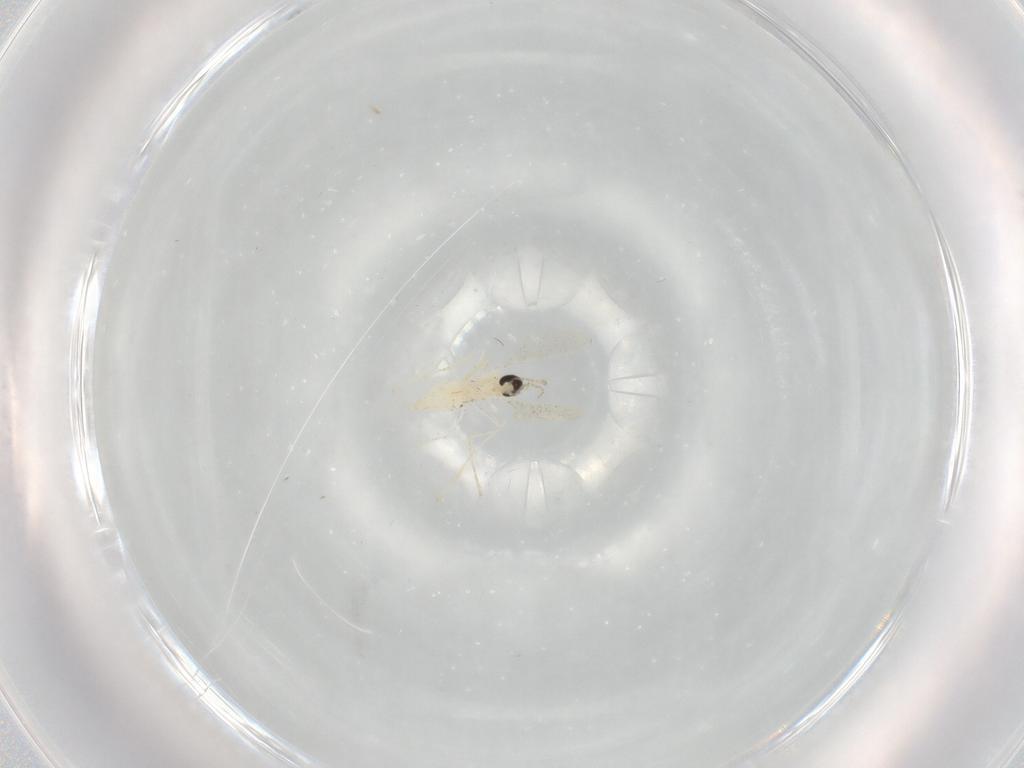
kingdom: Animalia
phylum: Arthropoda
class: Insecta
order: Diptera
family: Cecidomyiidae
